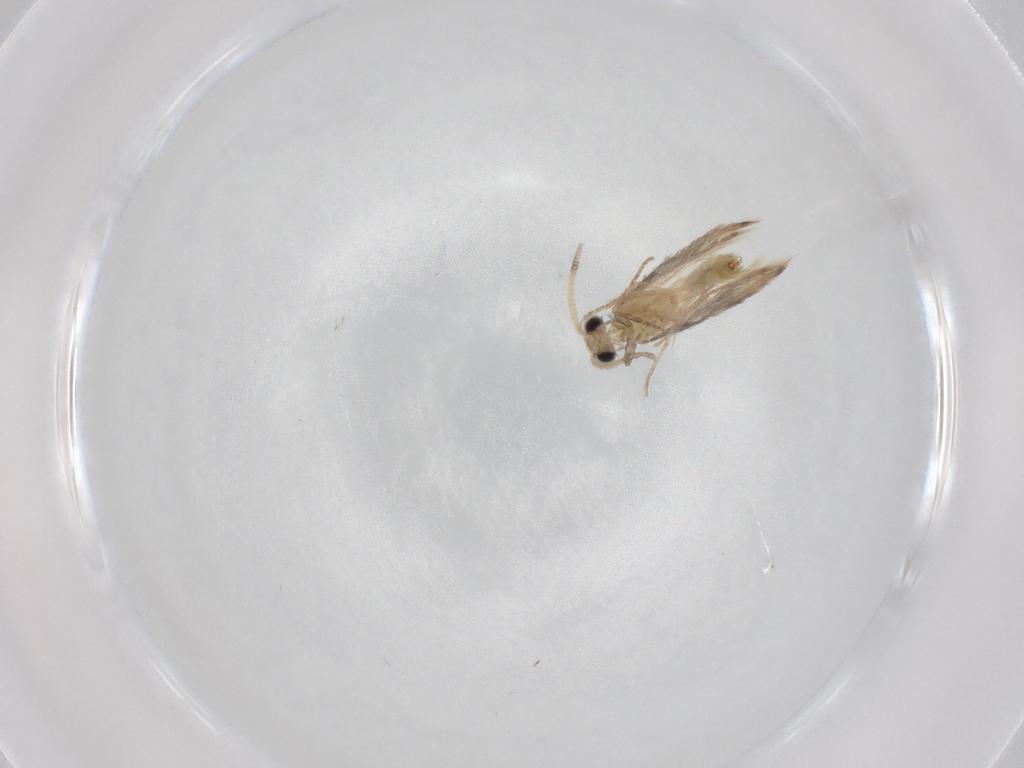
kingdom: Animalia
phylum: Arthropoda
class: Insecta
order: Trichoptera
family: Hydroptilidae
